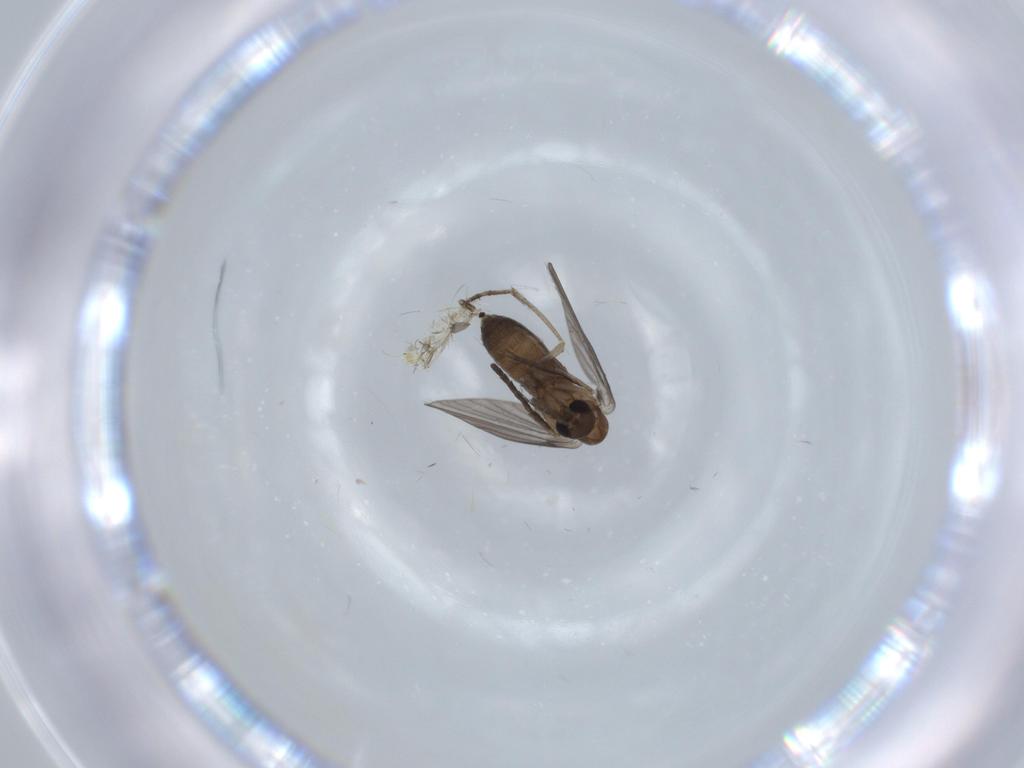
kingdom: Animalia
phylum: Arthropoda
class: Insecta
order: Diptera
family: Psychodidae
